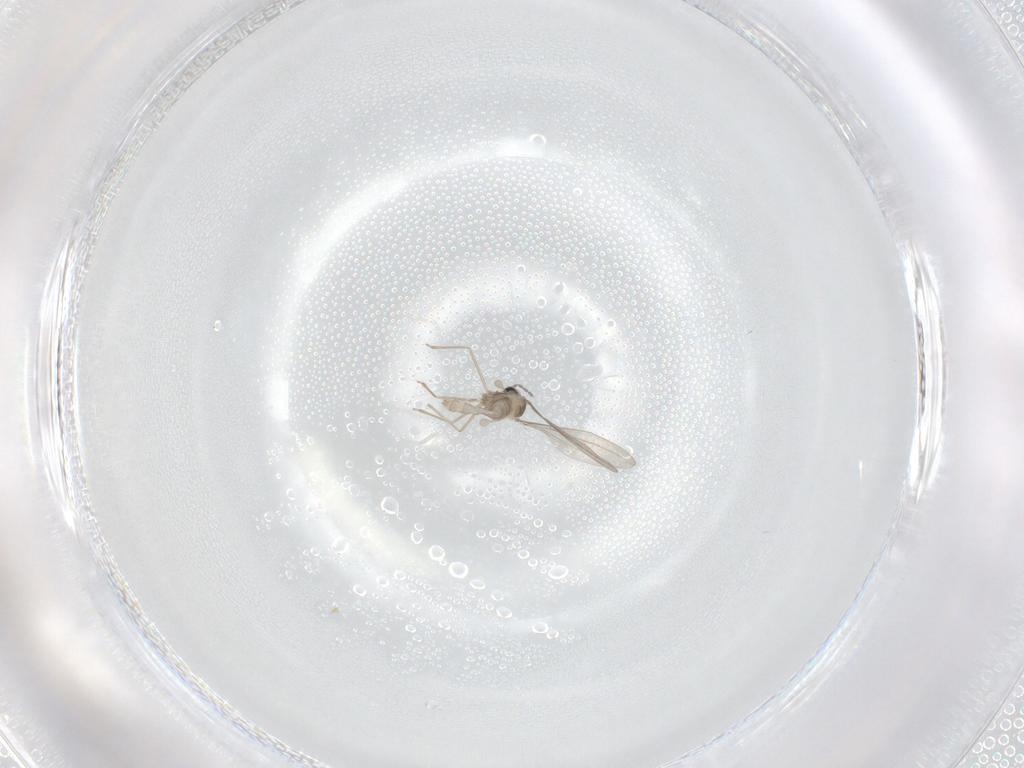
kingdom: Animalia
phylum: Arthropoda
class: Insecta
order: Diptera
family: Cecidomyiidae
